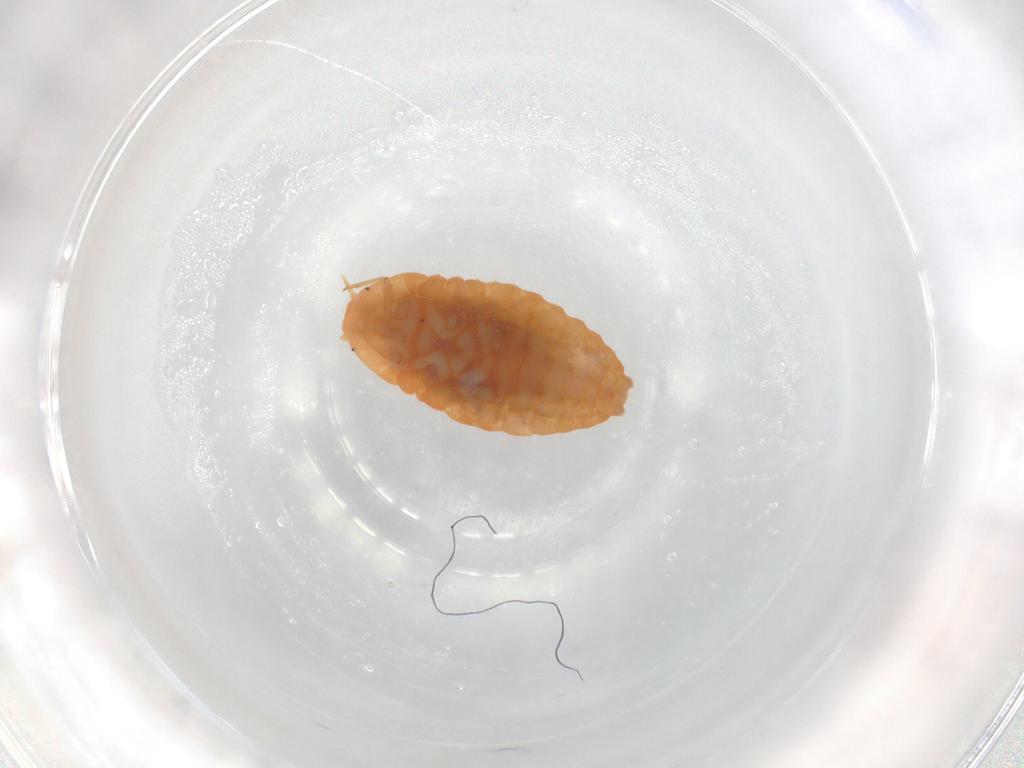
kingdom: Animalia
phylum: Arthropoda
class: Insecta
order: Hemiptera
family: Pseudococcidae
